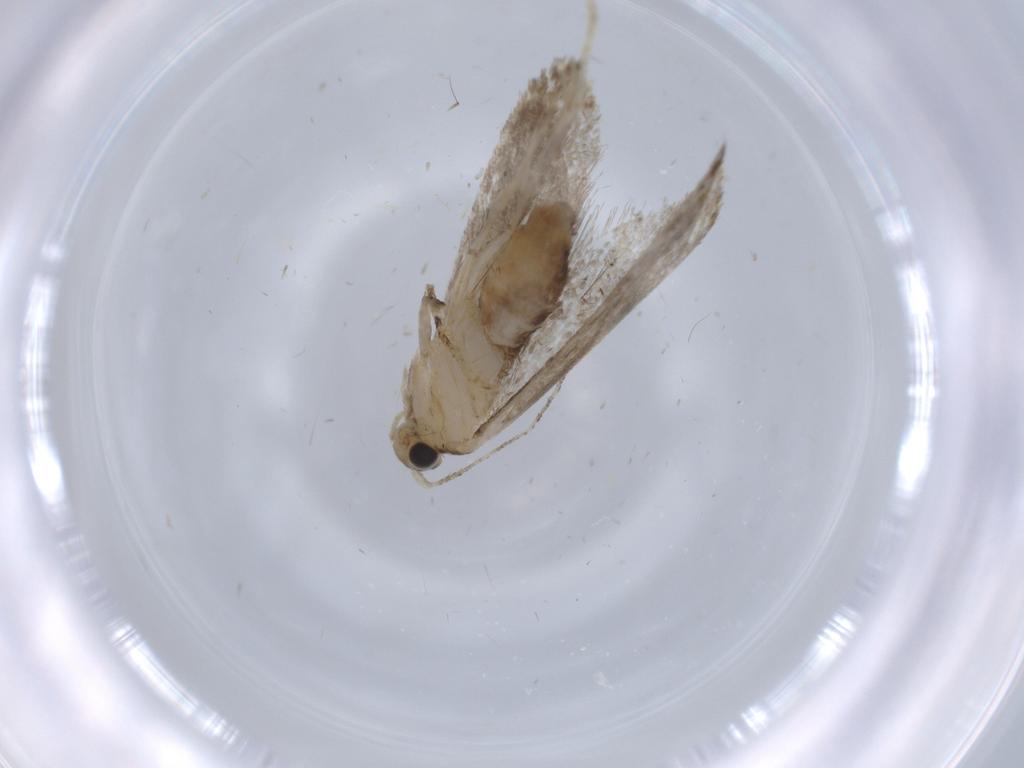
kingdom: Animalia
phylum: Arthropoda
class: Insecta
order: Lepidoptera
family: Tineidae
